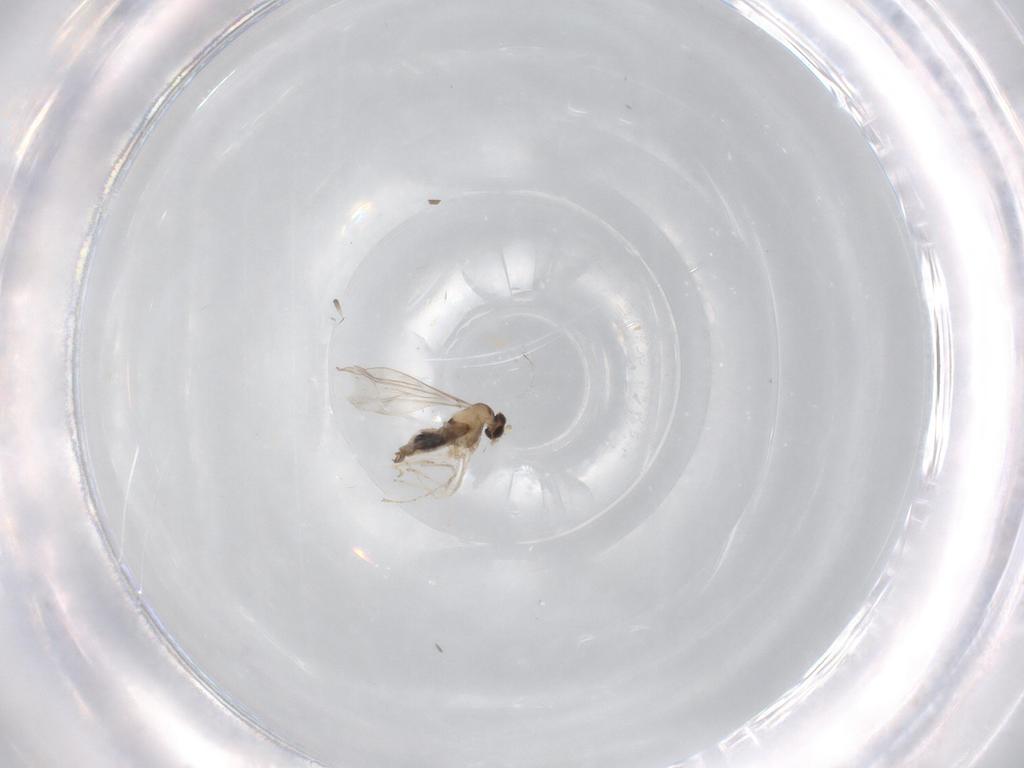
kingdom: Animalia
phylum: Arthropoda
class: Insecta
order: Diptera
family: Cecidomyiidae
